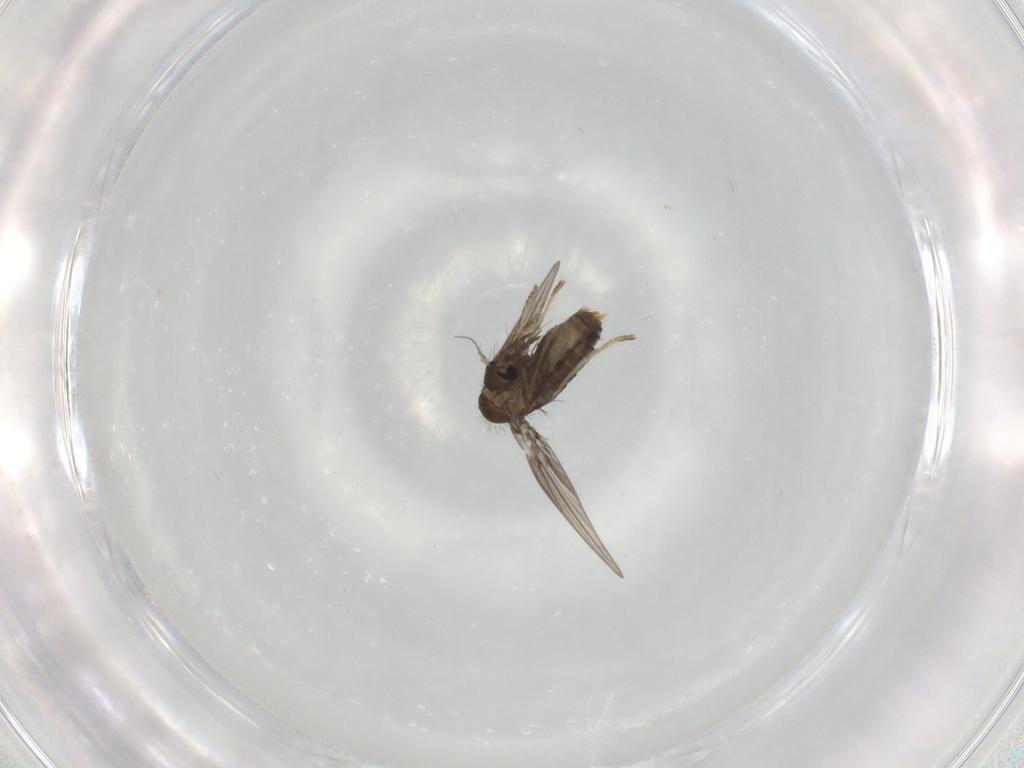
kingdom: Animalia
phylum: Arthropoda
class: Insecta
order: Diptera
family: Psychodidae
